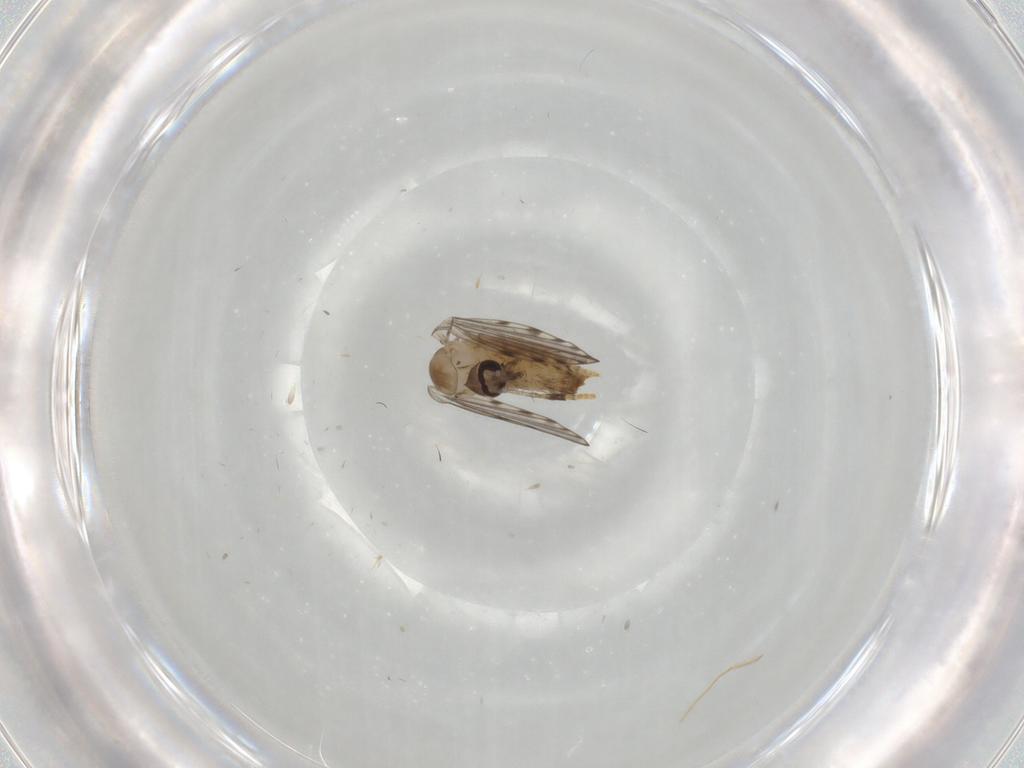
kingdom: Animalia
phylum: Arthropoda
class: Insecta
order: Diptera
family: Psychodidae
